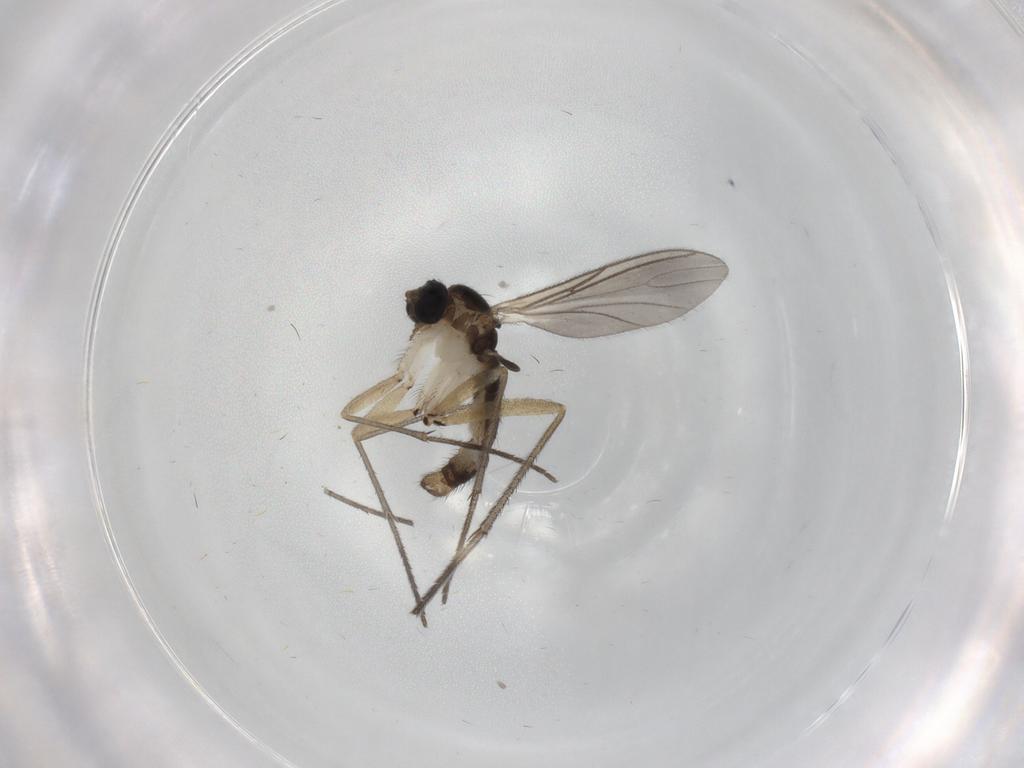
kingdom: Animalia
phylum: Arthropoda
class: Insecta
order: Diptera
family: Sciaridae
